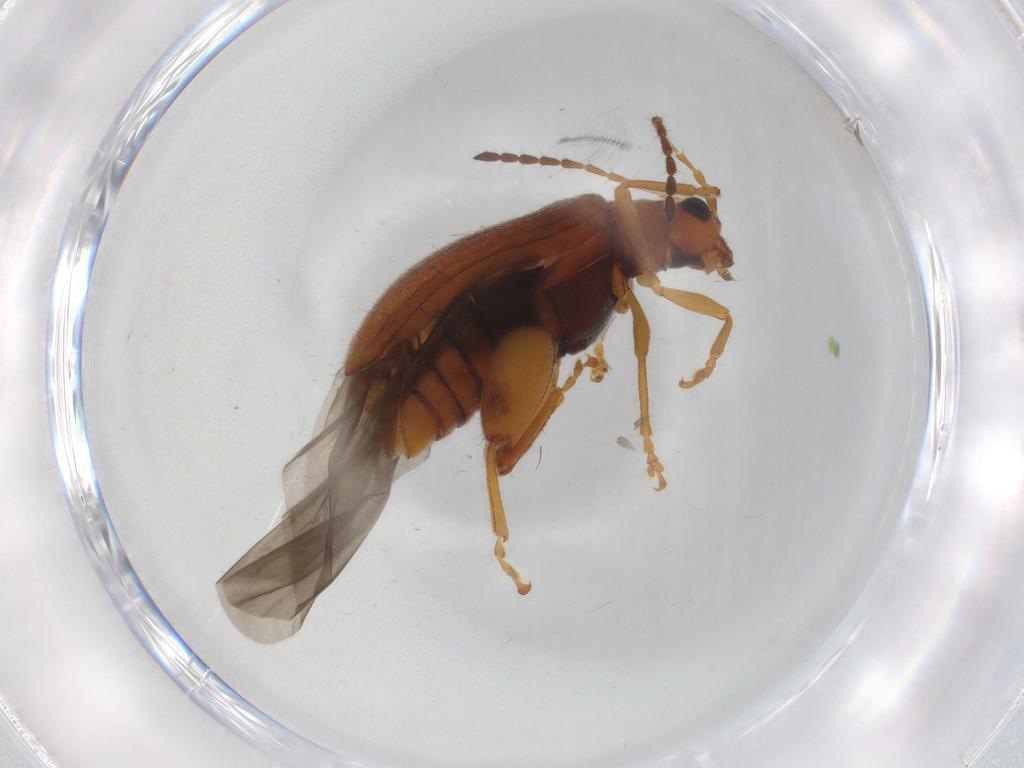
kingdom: Animalia
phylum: Arthropoda
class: Insecta
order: Coleoptera
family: Chrysomelidae
